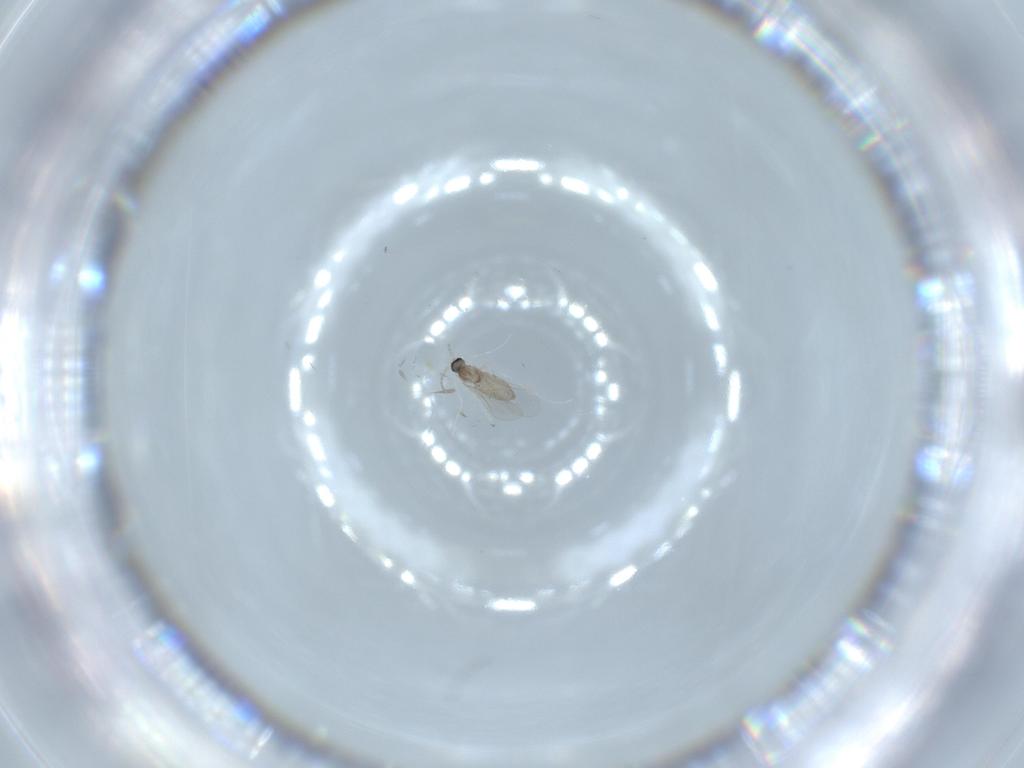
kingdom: Animalia
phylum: Arthropoda
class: Insecta
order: Diptera
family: Cecidomyiidae
